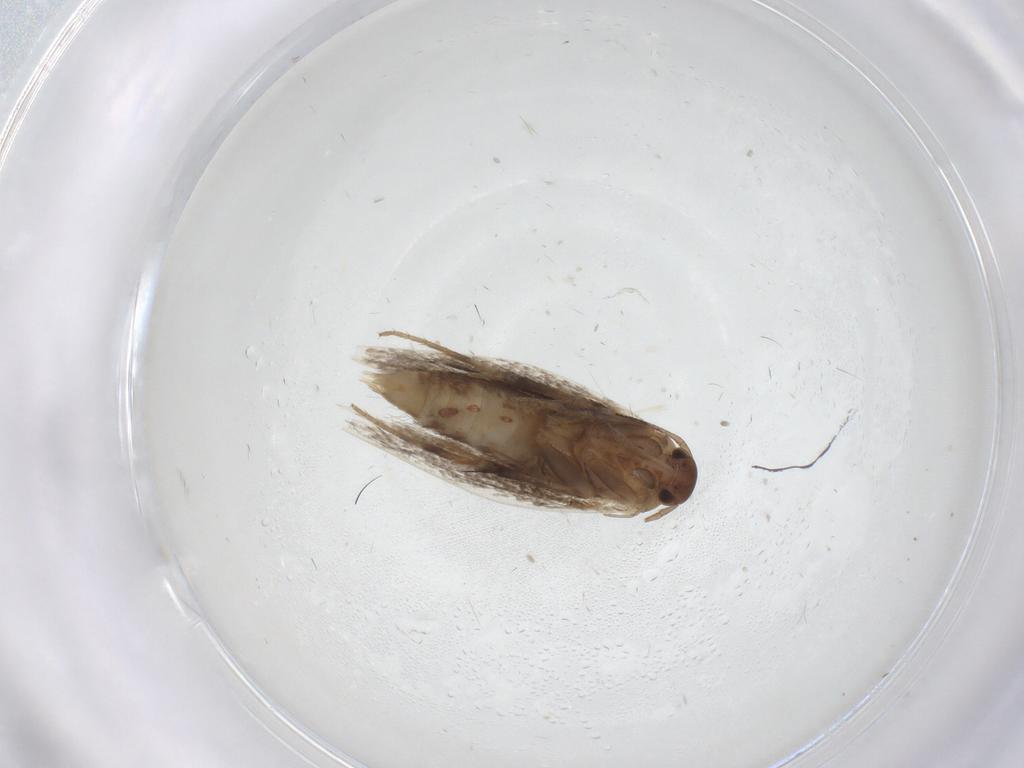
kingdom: Animalia
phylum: Arthropoda
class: Insecta
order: Lepidoptera
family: Elachistidae
